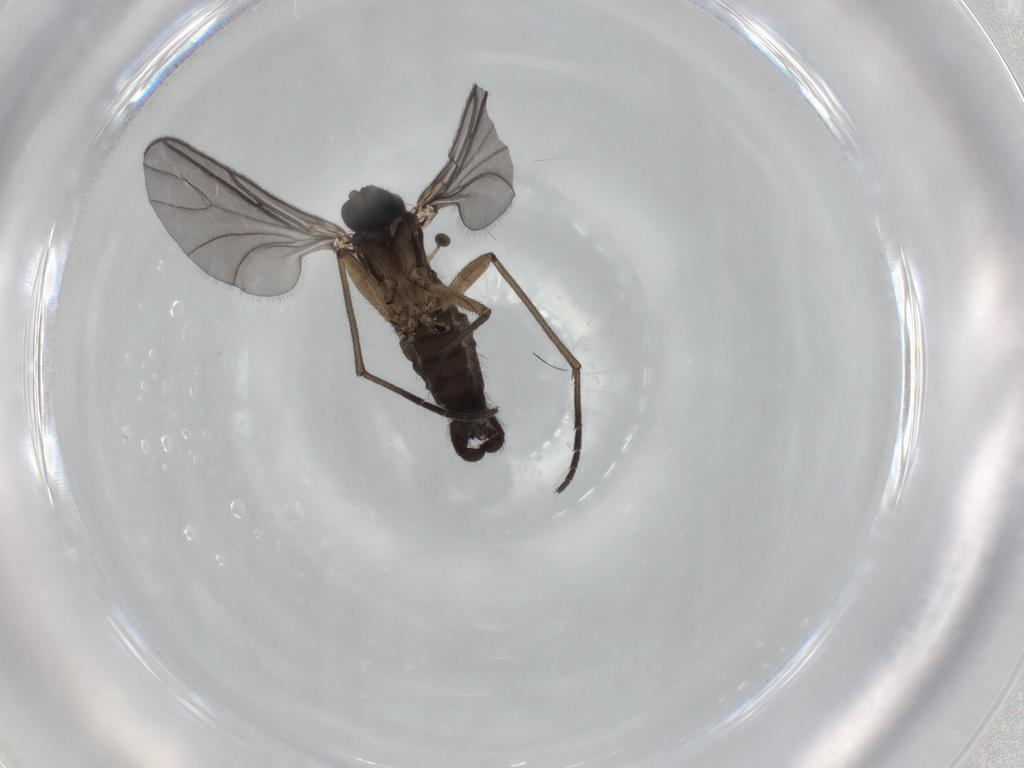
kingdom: Animalia
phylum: Arthropoda
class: Insecta
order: Diptera
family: Sciaridae
